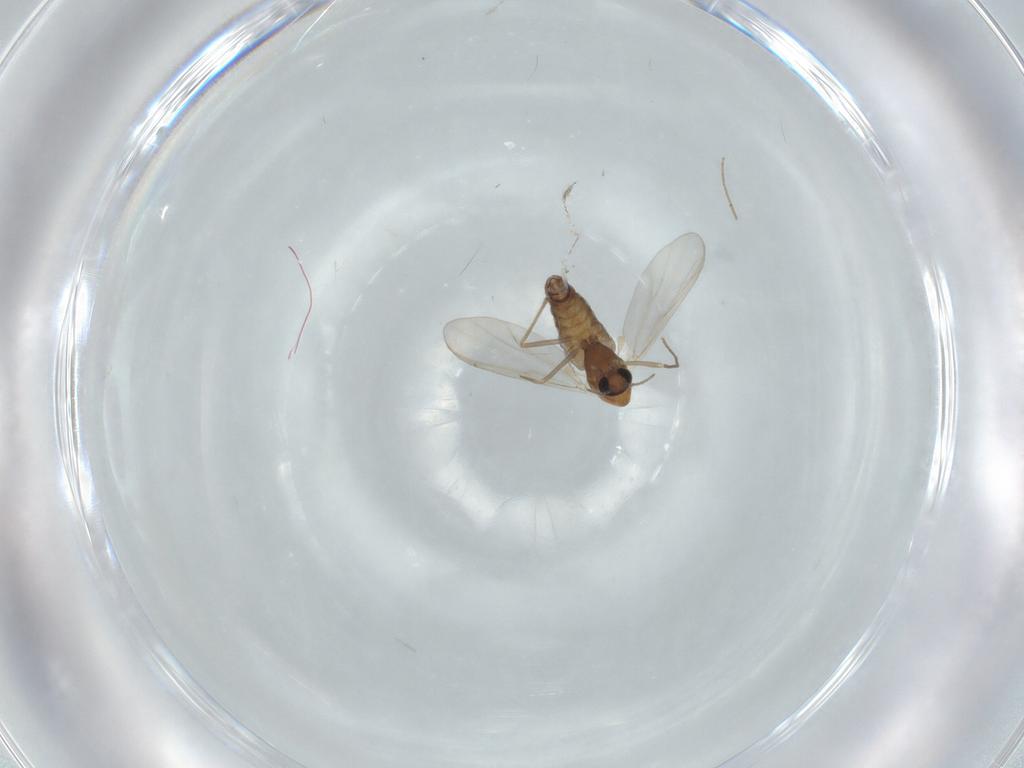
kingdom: Animalia
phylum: Arthropoda
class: Insecta
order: Diptera
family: Chironomidae
